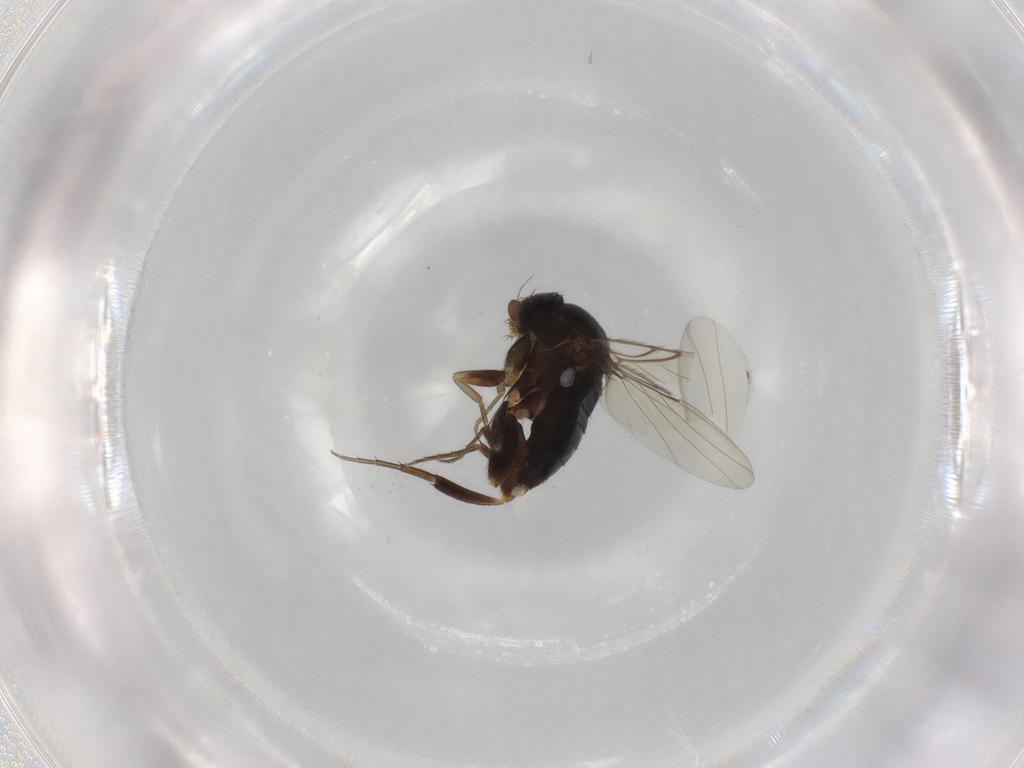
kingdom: Animalia
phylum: Arthropoda
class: Insecta
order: Diptera
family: Phoridae
